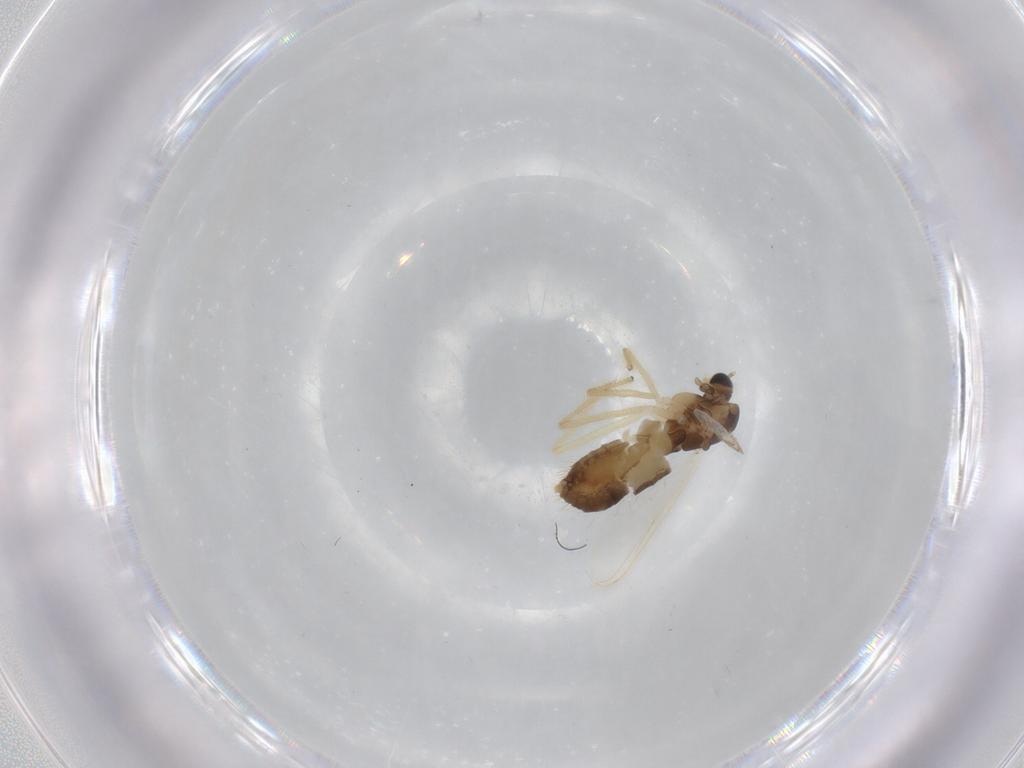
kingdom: Animalia
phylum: Arthropoda
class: Insecta
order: Diptera
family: Chironomidae
